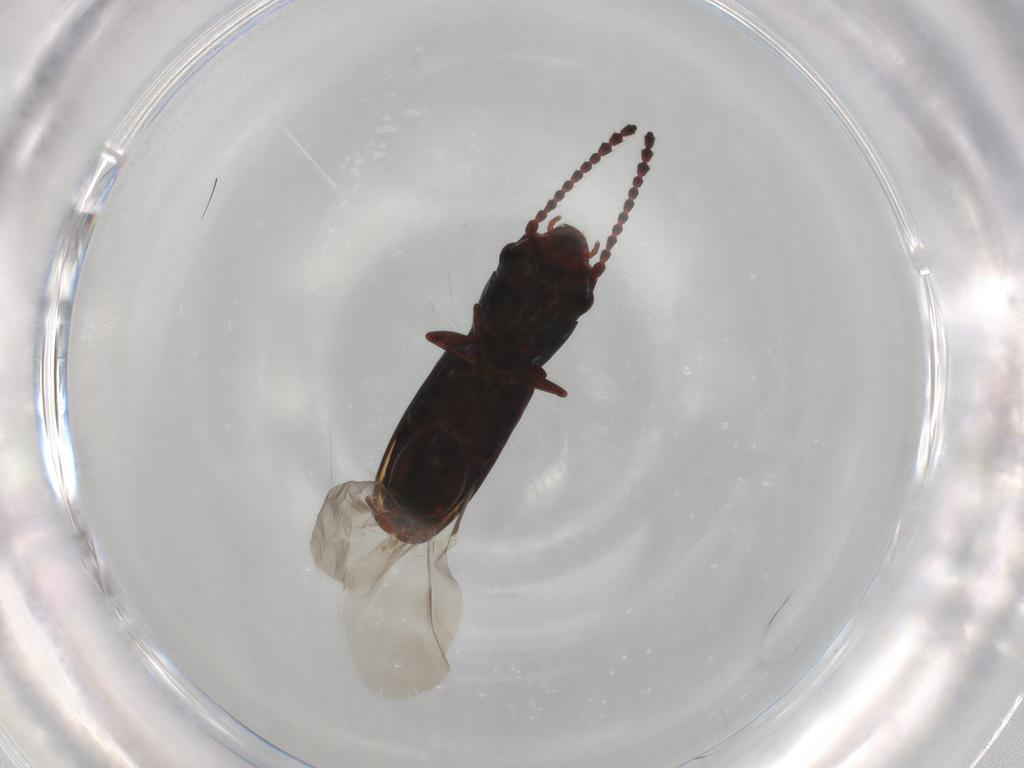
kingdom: Animalia
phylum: Arthropoda
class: Insecta
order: Coleoptera
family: Laemophloeidae
